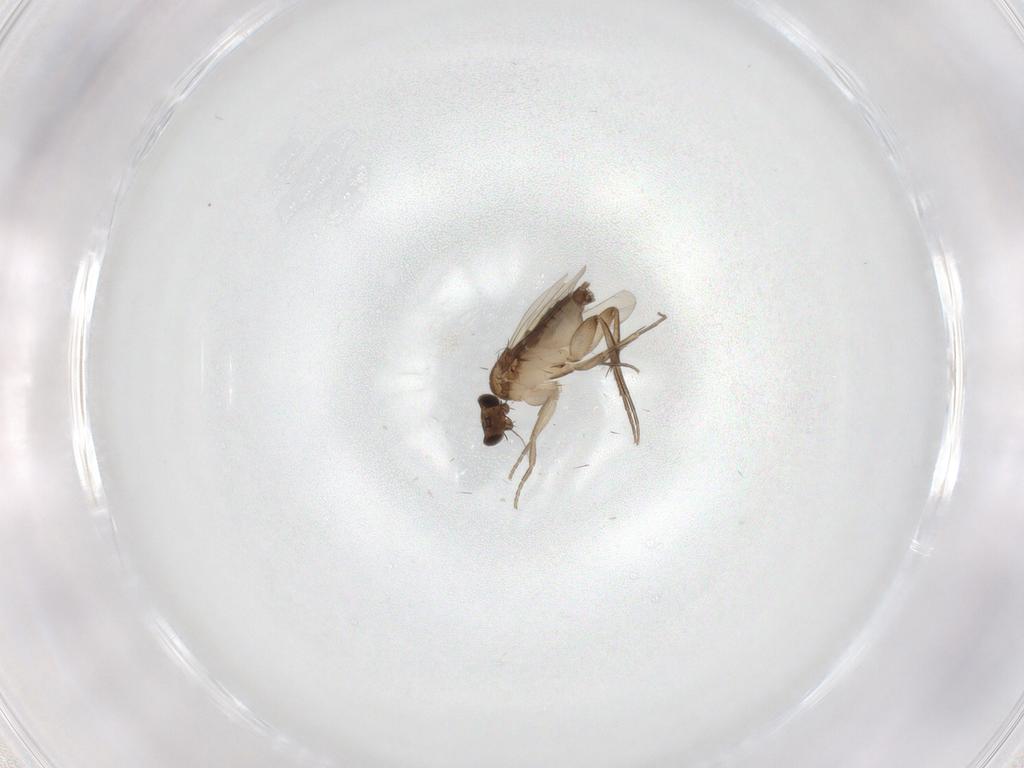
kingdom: Animalia
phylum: Arthropoda
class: Insecta
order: Diptera
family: Phoridae
